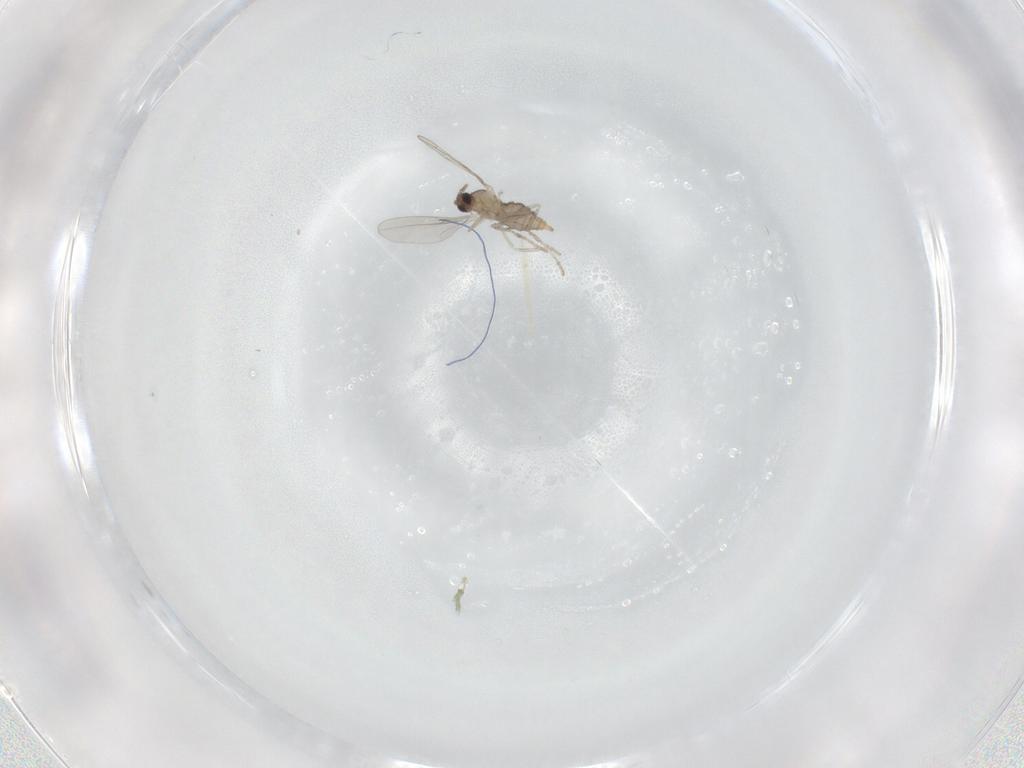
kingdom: Animalia
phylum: Arthropoda
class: Insecta
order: Diptera
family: Cecidomyiidae
